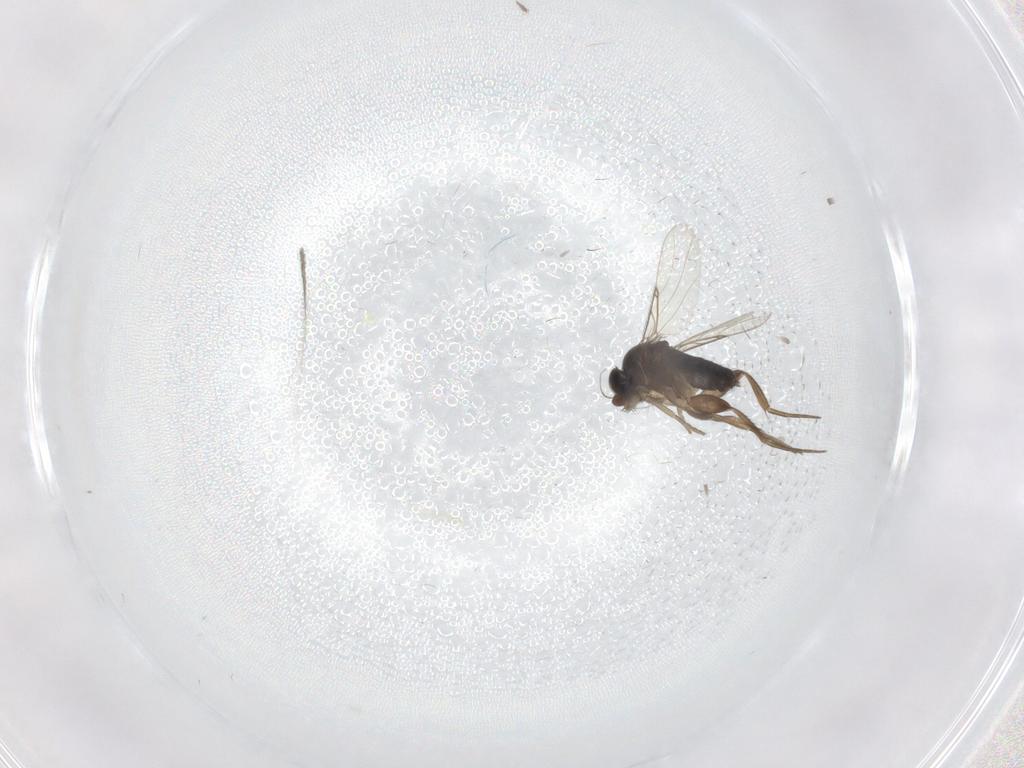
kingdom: Animalia
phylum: Arthropoda
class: Insecta
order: Diptera
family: Phoridae
